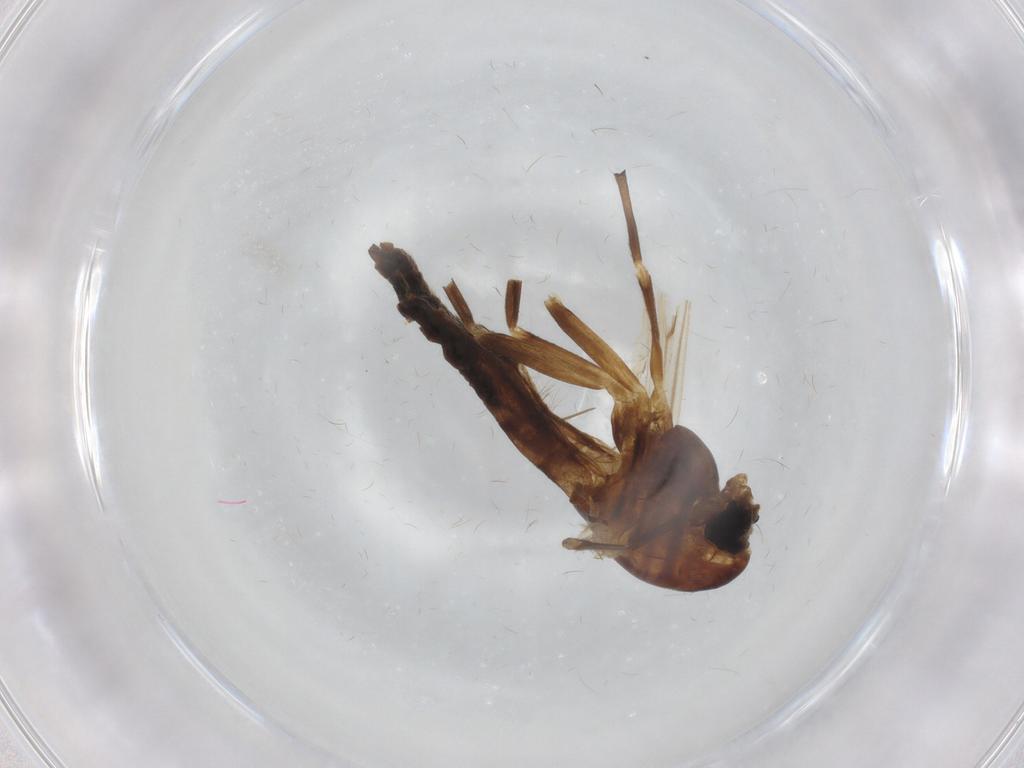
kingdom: Animalia
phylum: Arthropoda
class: Insecta
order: Diptera
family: Chironomidae
